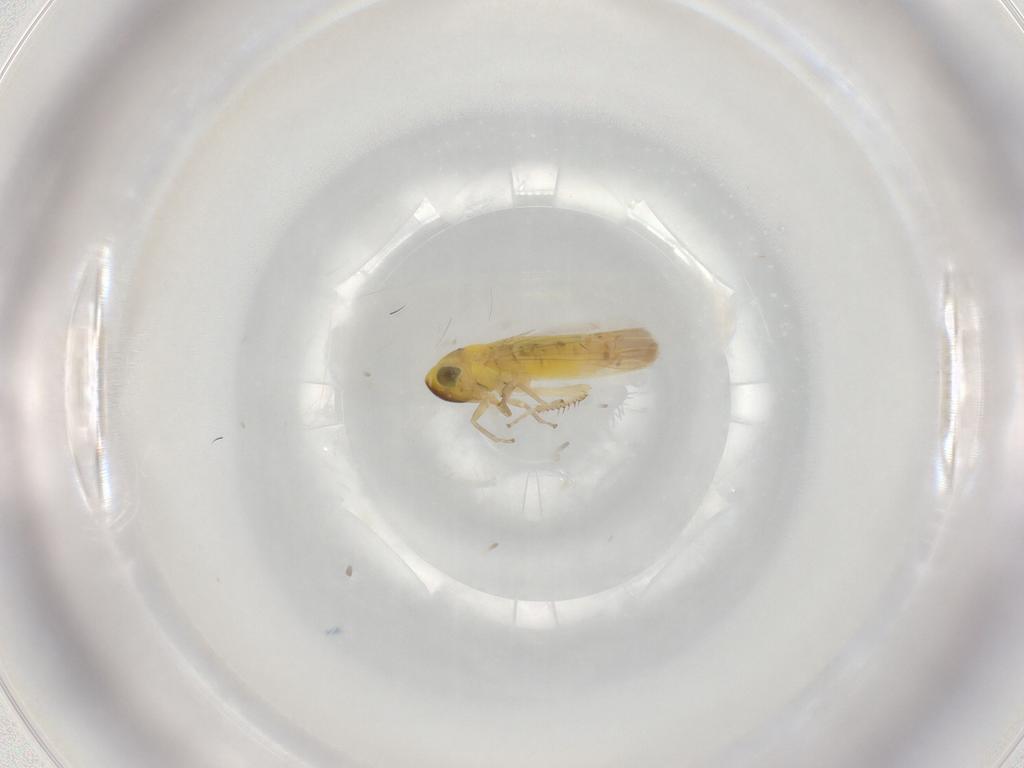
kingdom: Animalia
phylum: Arthropoda
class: Insecta
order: Hemiptera
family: Cicadellidae
